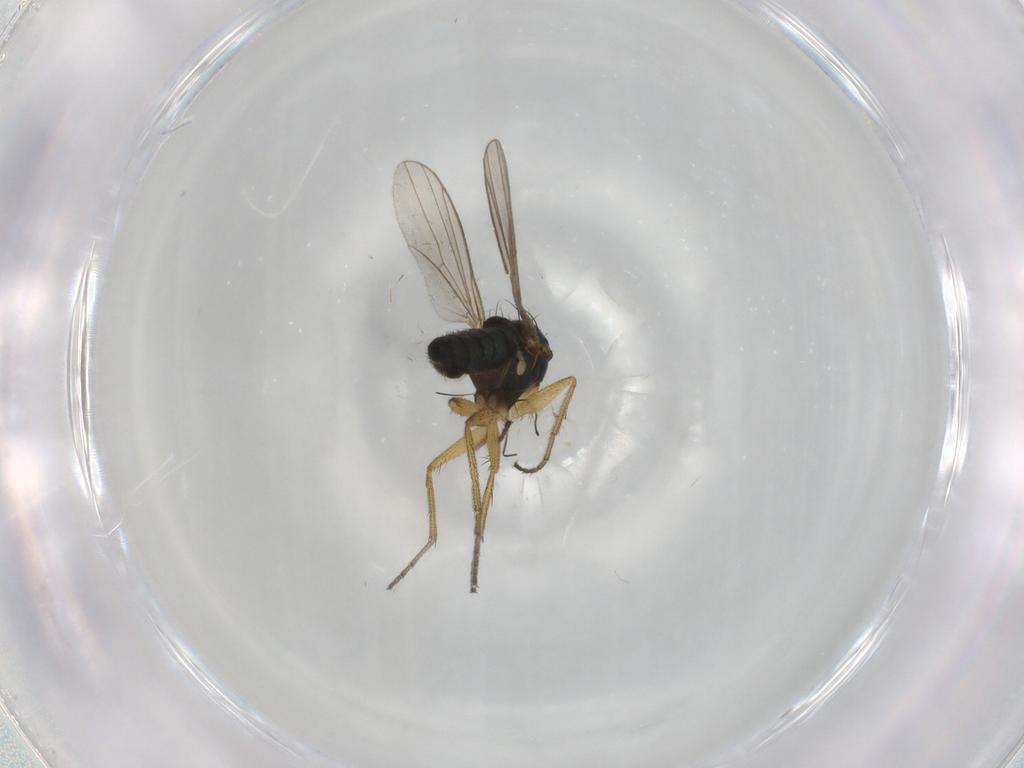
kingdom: Animalia
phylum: Arthropoda
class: Insecta
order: Diptera
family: Dolichopodidae
